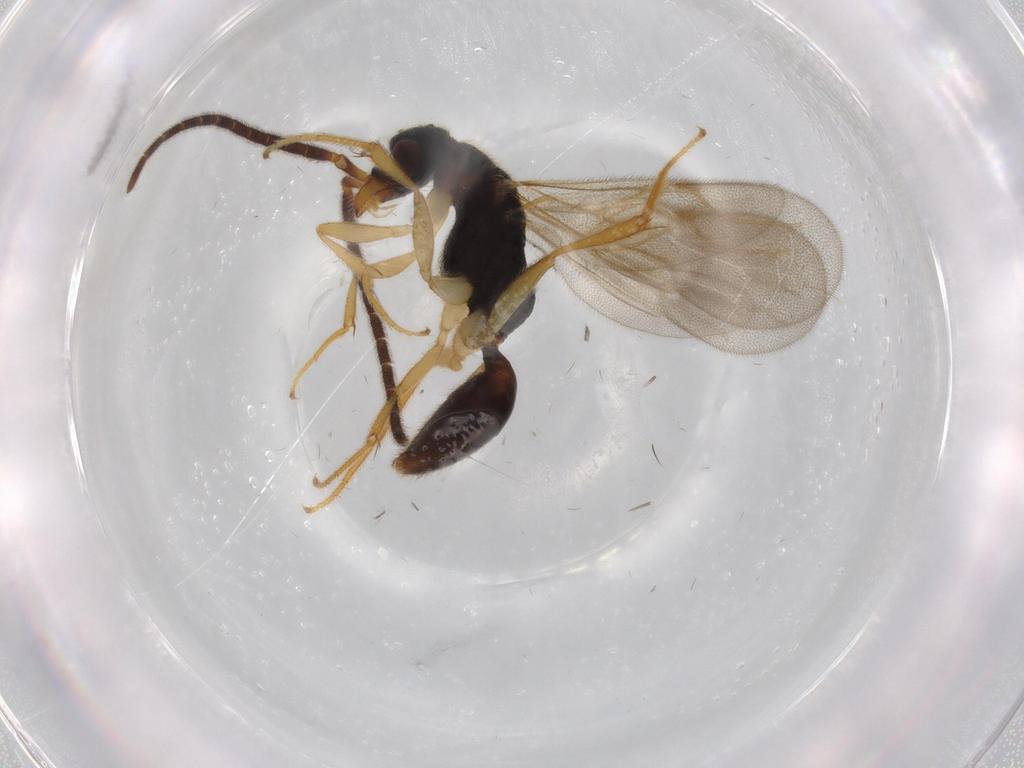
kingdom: Animalia
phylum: Arthropoda
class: Insecta
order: Hymenoptera
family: Bethylidae
